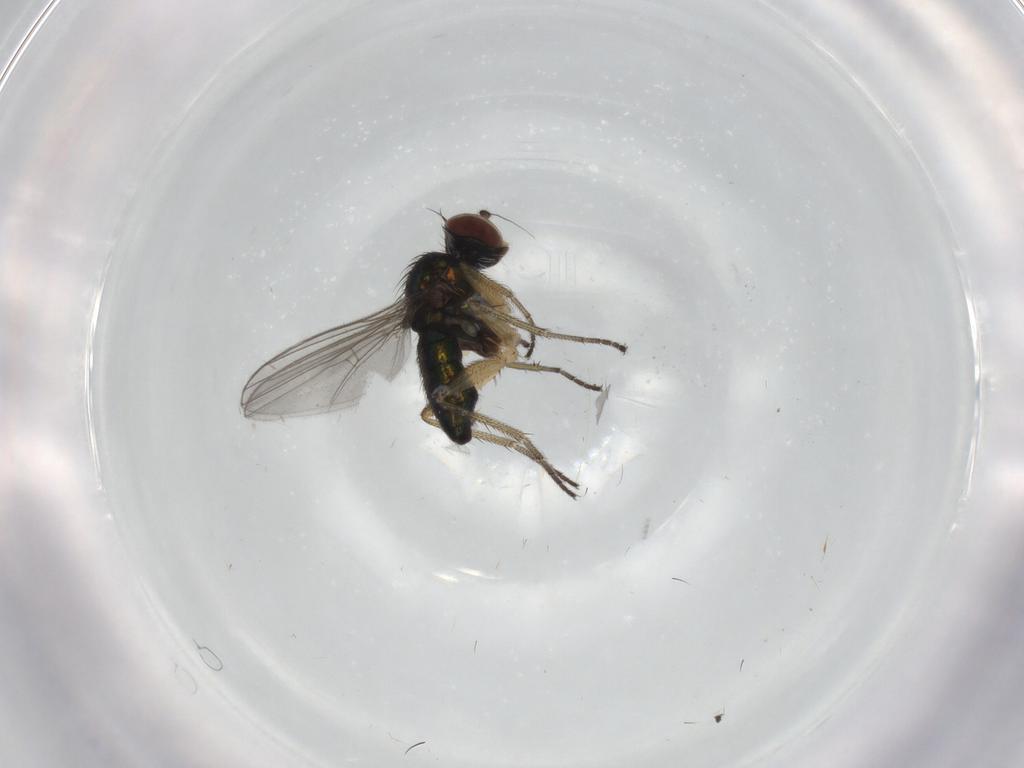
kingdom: Animalia
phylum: Arthropoda
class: Insecta
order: Diptera
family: Dolichopodidae
